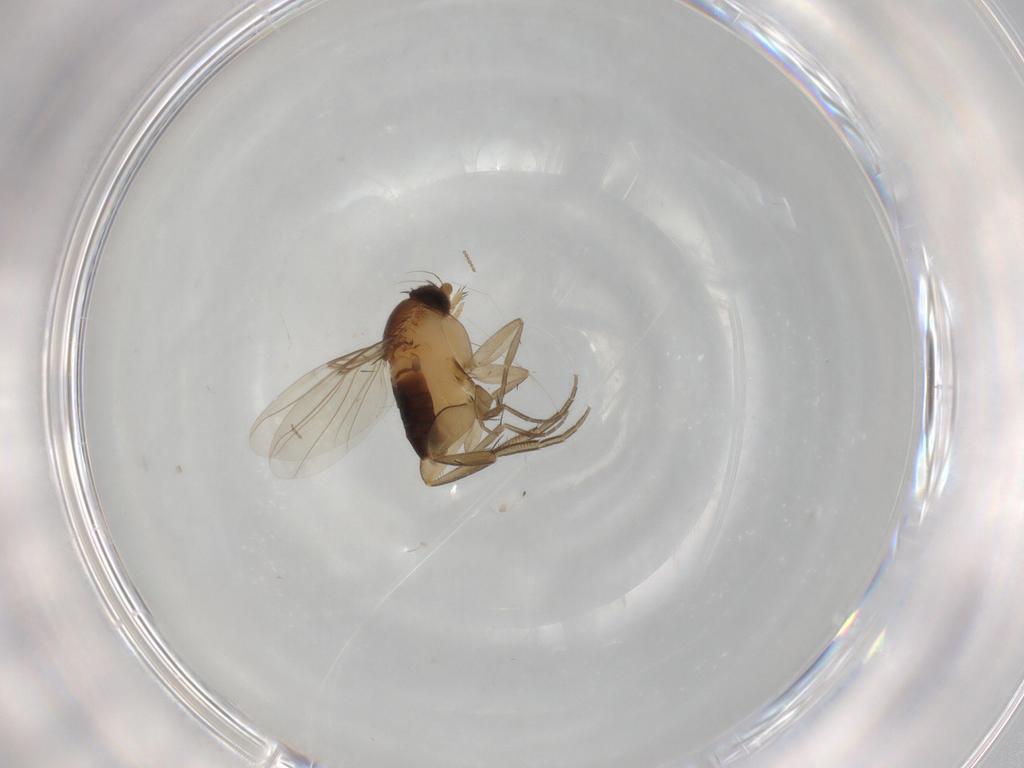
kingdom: Animalia
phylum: Arthropoda
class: Insecta
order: Diptera
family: Phoridae
